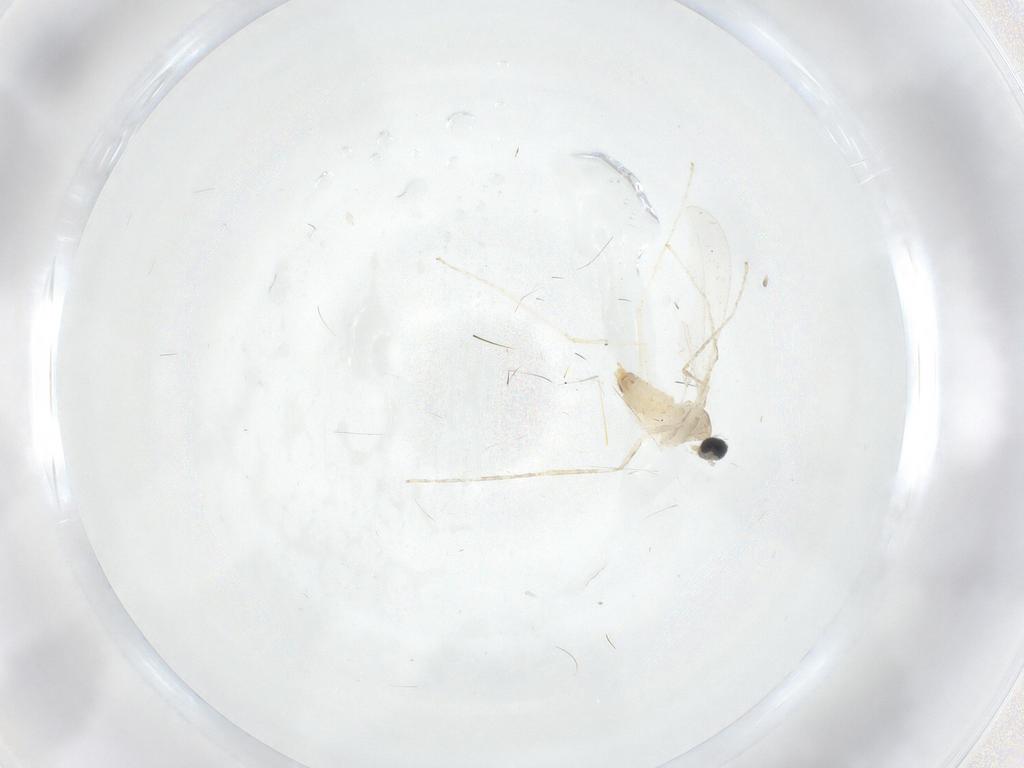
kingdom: Animalia
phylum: Arthropoda
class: Insecta
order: Diptera
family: Cecidomyiidae
